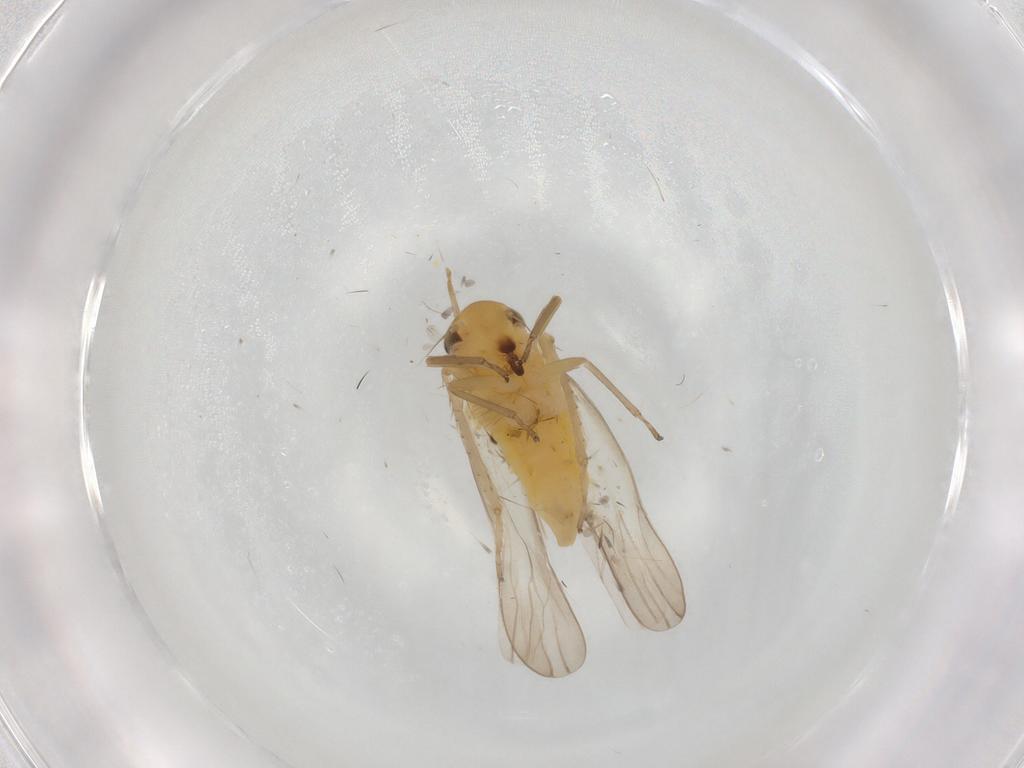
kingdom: Animalia
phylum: Arthropoda
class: Insecta
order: Hemiptera
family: Cicadellidae
